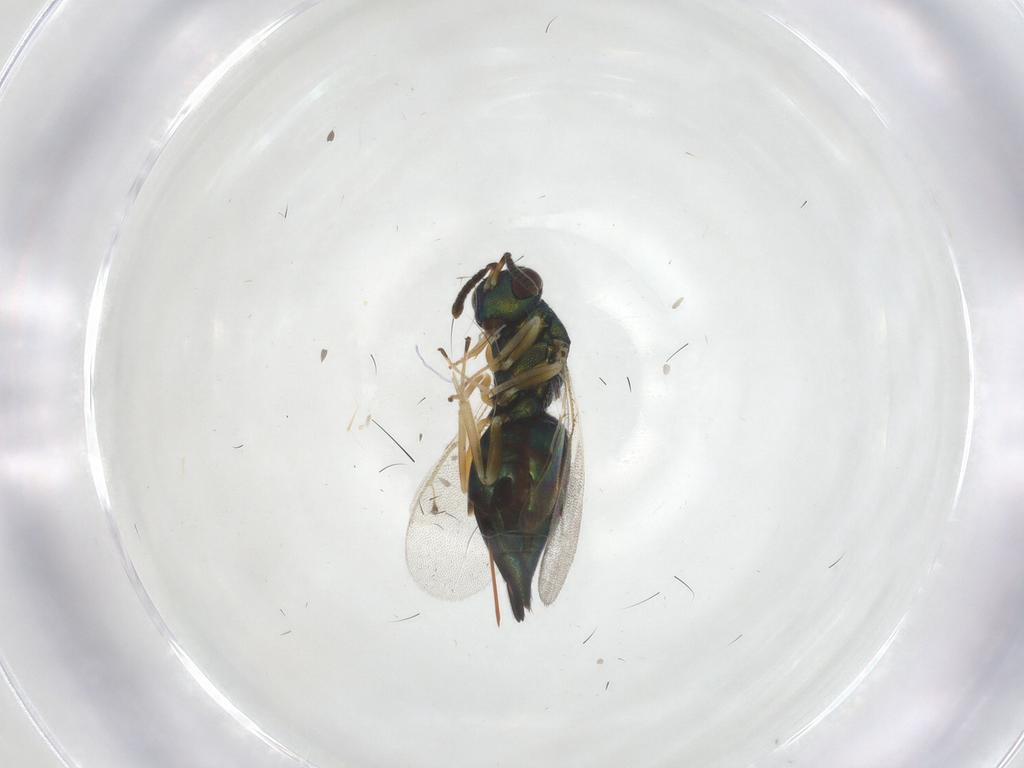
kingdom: Animalia
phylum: Arthropoda
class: Insecta
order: Hymenoptera
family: Pteromalidae
